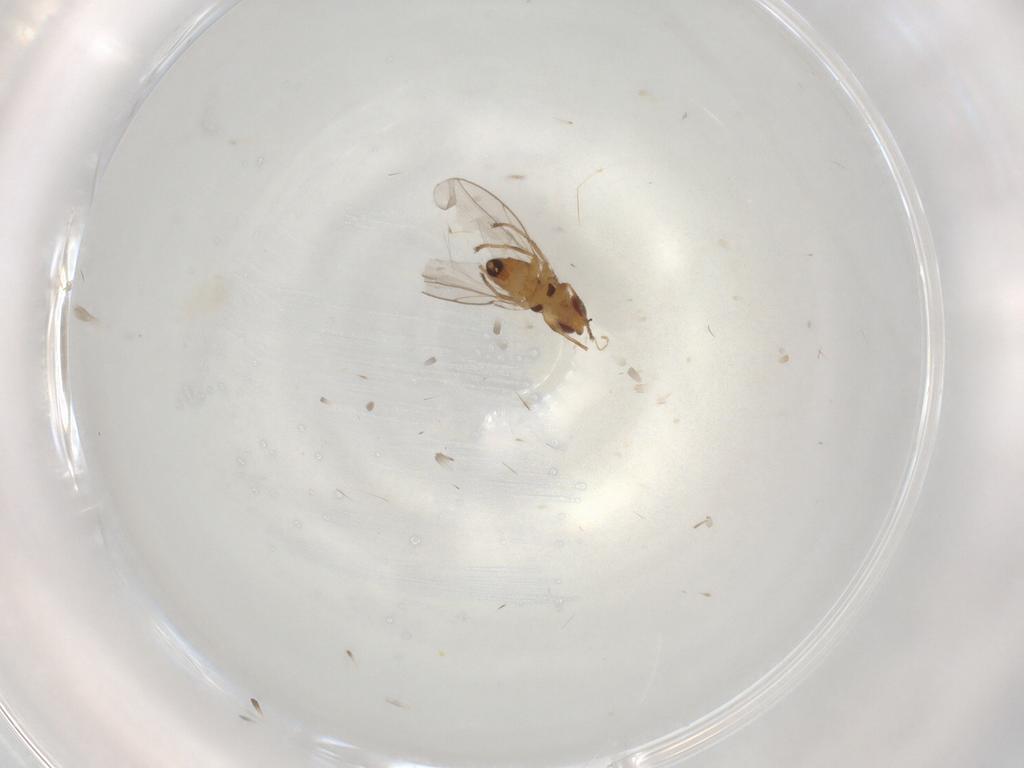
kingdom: Animalia
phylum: Arthropoda
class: Insecta
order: Diptera
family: Chloropidae
